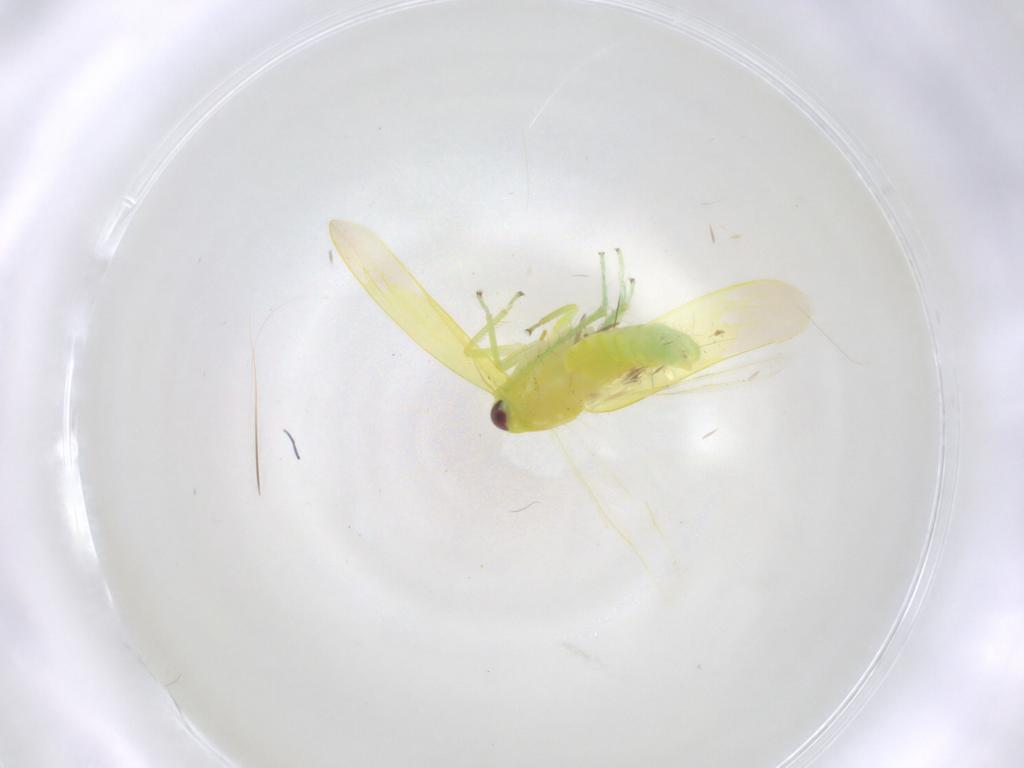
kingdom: Animalia
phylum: Arthropoda
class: Insecta
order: Hemiptera
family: Cicadellidae
